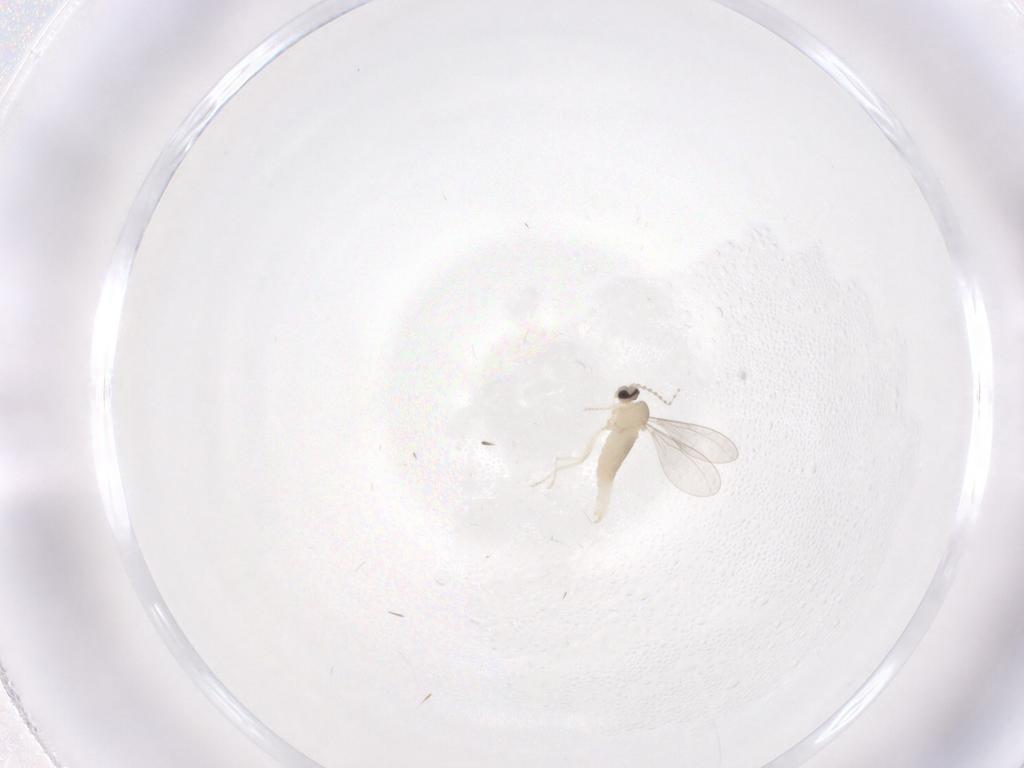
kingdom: Animalia
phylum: Arthropoda
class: Insecta
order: Diptera
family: Cecidomyiidae
